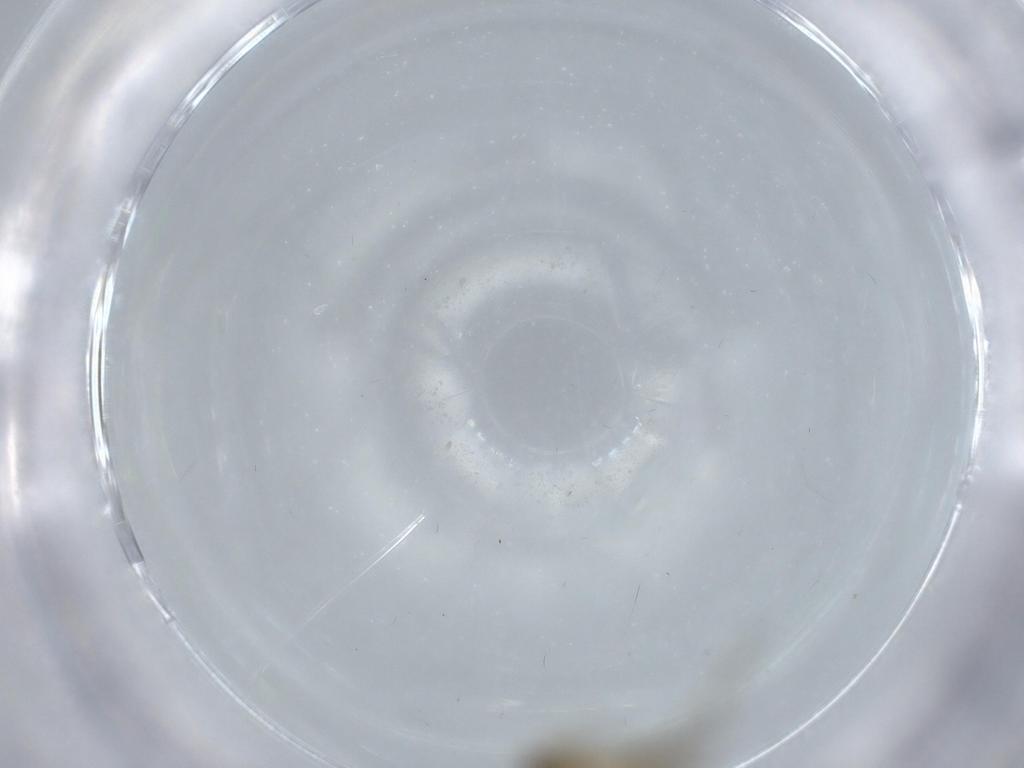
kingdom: Animalia
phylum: Arthropoda
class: Insecta
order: Diptera
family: Phoridae
